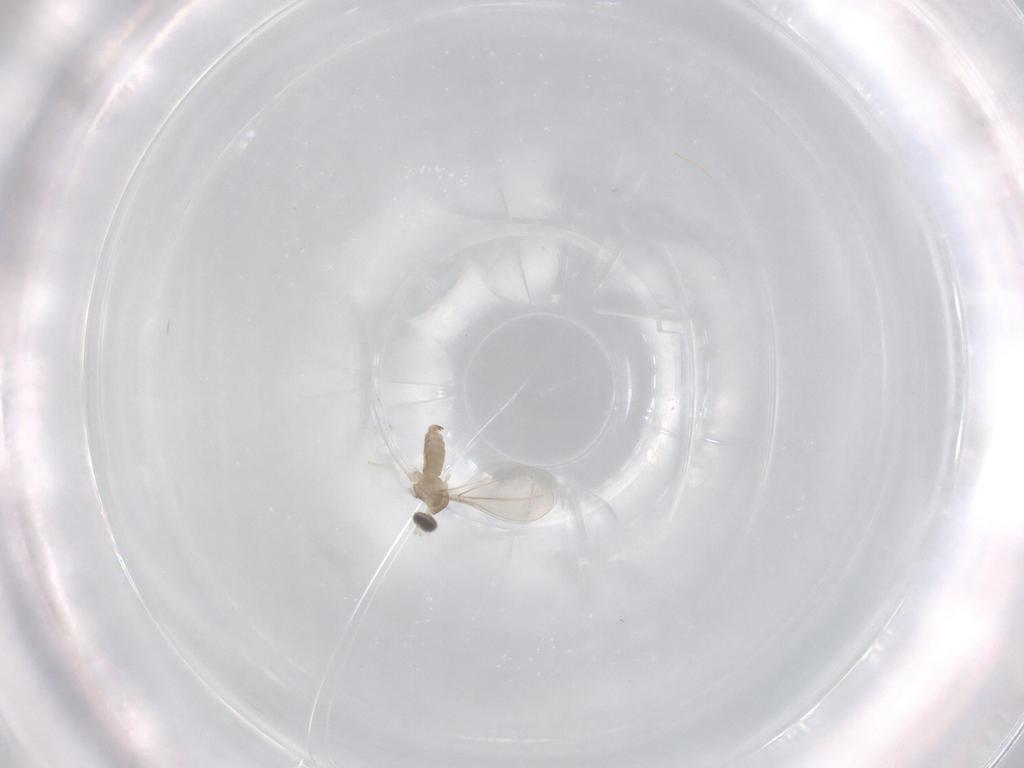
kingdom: Animalia
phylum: Arthropoda
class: Insecta
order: Diptera
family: Cecidomyiidae
